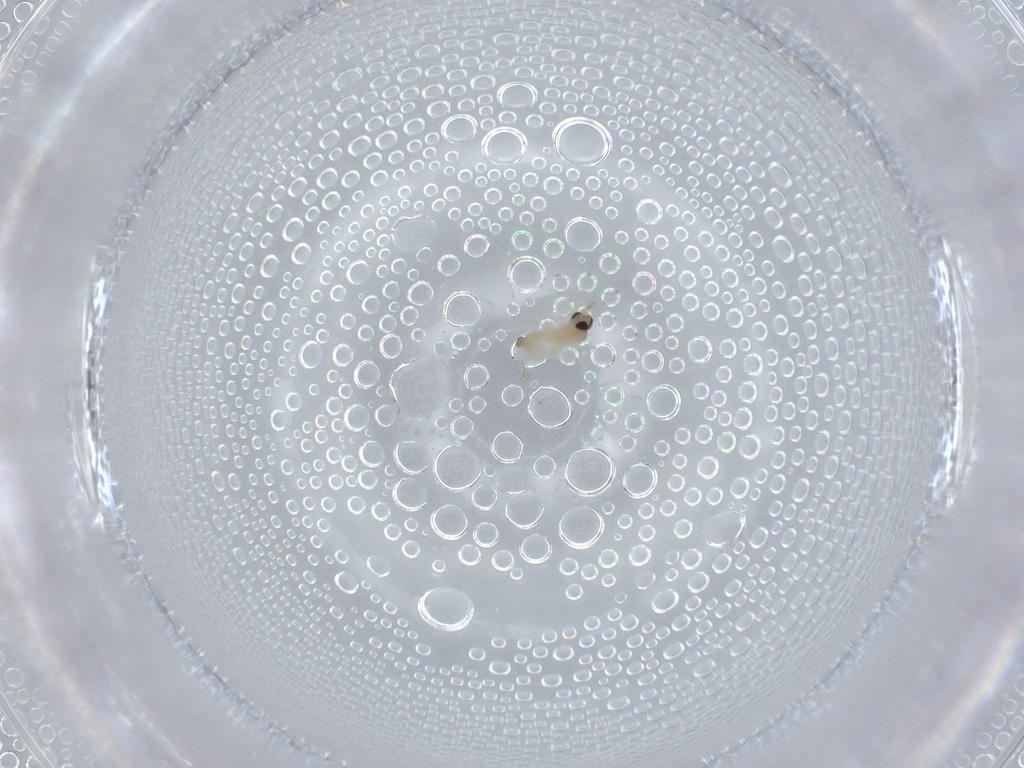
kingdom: Animalia
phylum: Arthropoda
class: Insecta
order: Diptera
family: Cecidomyiidae
